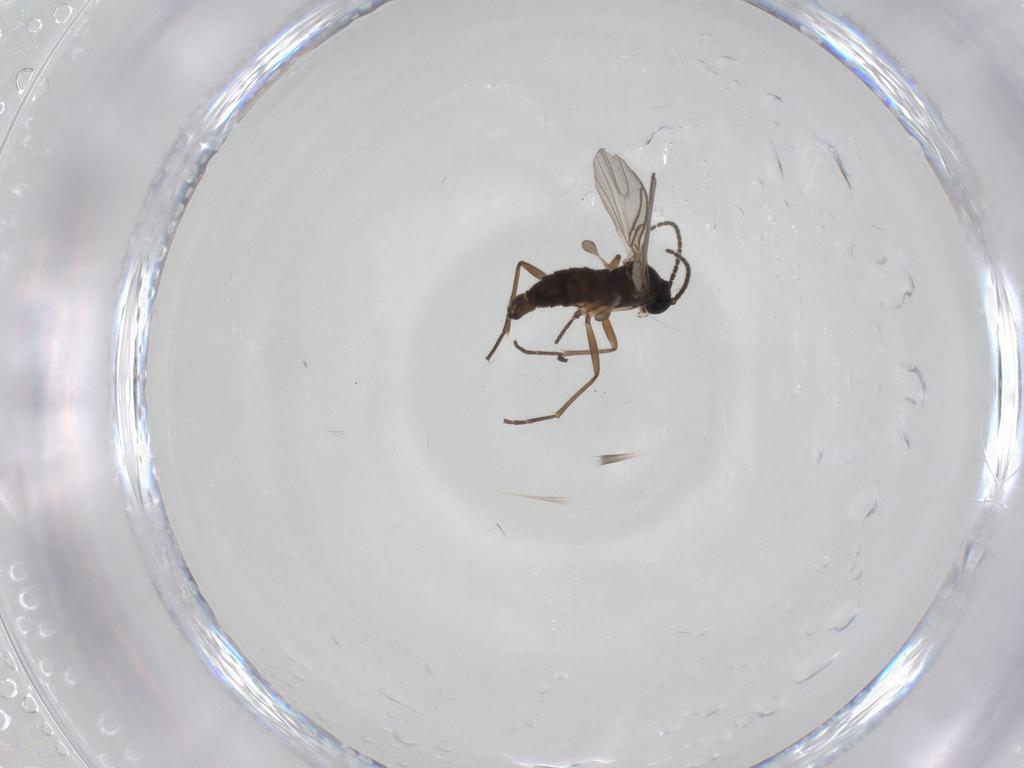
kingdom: Animalia
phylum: Arthropoda
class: Insecta
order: Diptera
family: Sciaridae
